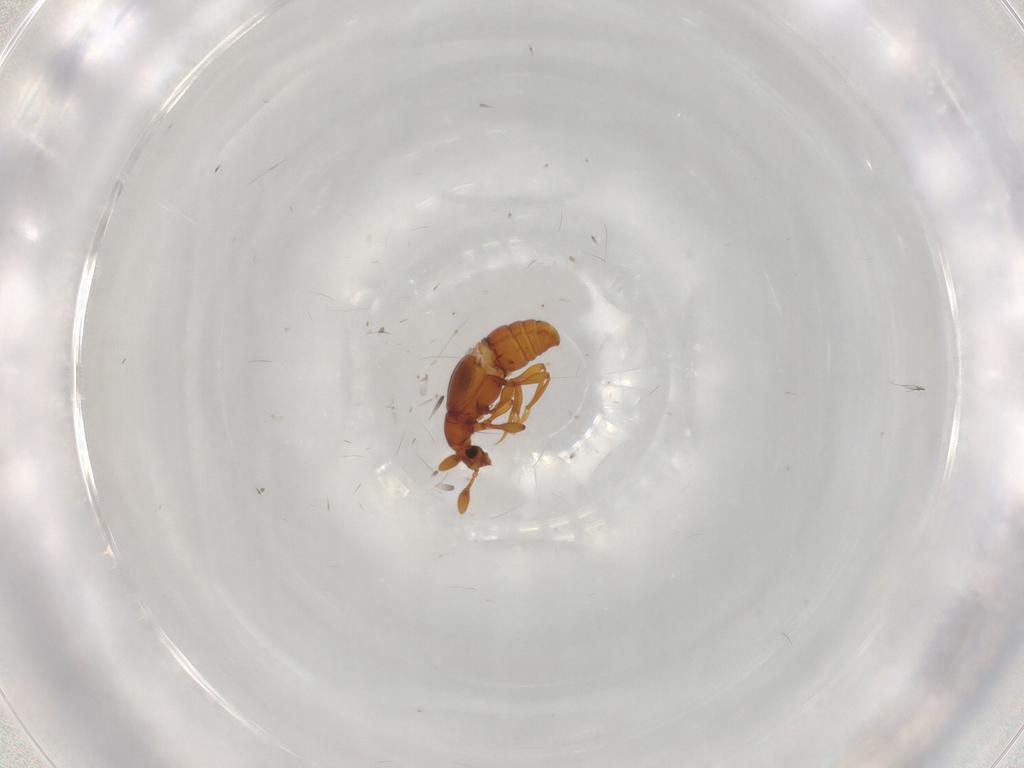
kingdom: Animalia
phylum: Arthropoda
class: Insecta
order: Coleoptera
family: Staphylinidae
